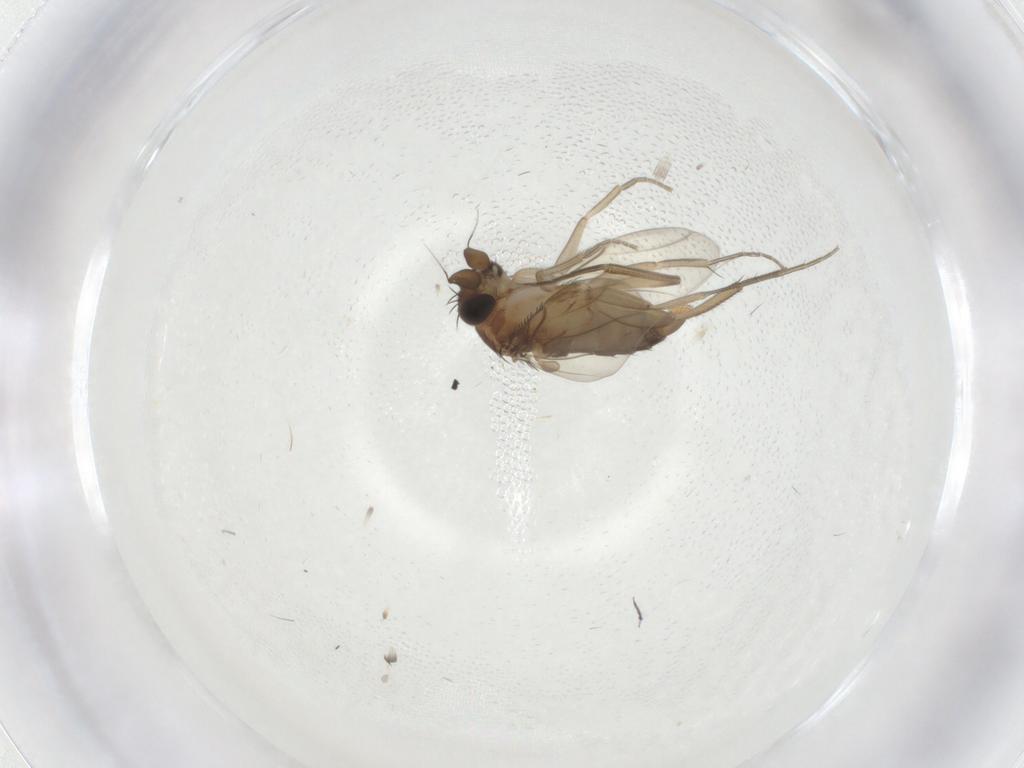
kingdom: Animalia
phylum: Arthropoda
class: Insecta
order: Diptera
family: Phoridae
